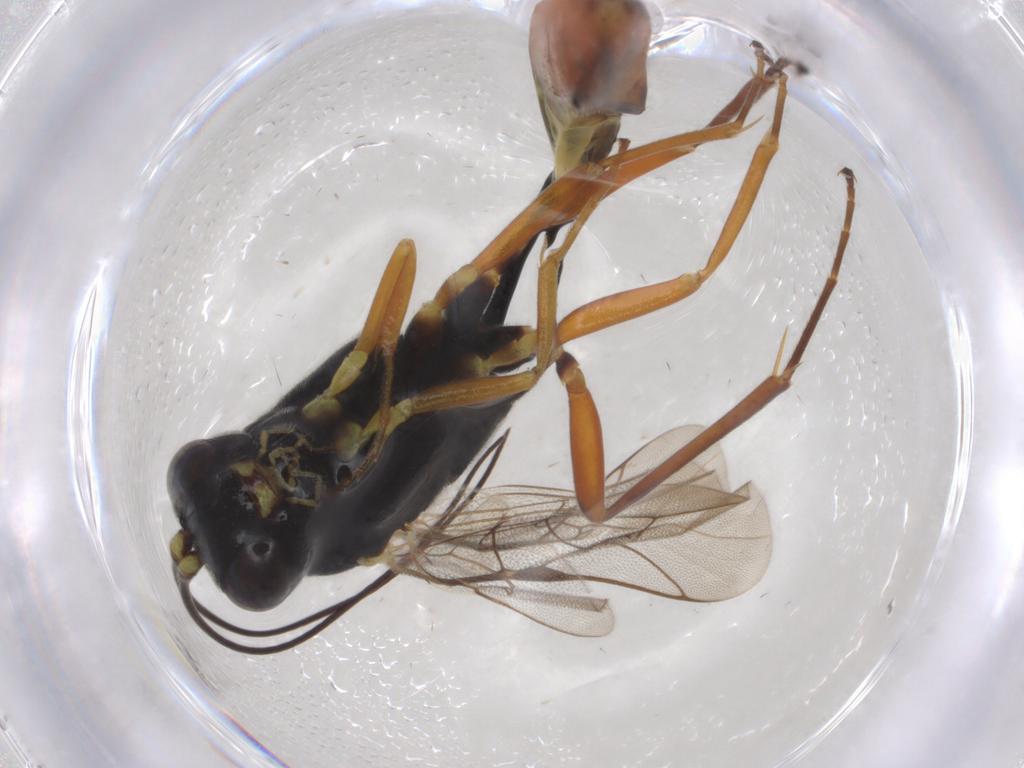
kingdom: Animalia
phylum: Arthropoda
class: Insecta
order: Hymenoptera
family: Ichneumonidae
